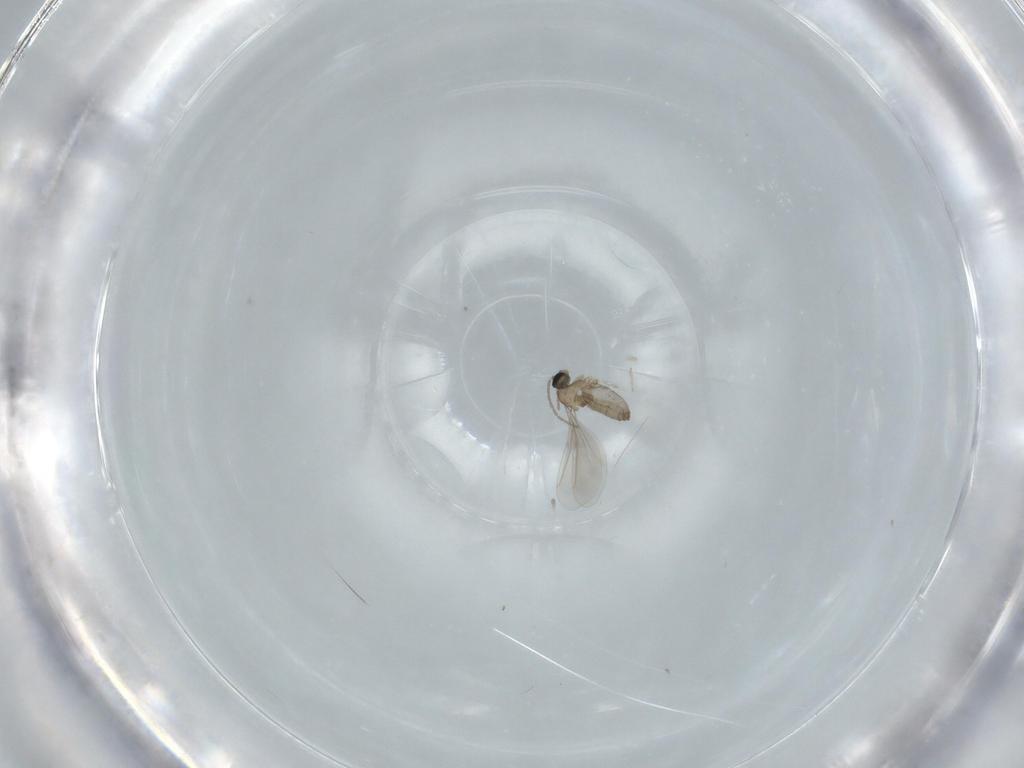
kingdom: Animalia
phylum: Arthropoda
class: Insecta
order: Diptera
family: Dolichopodidae
